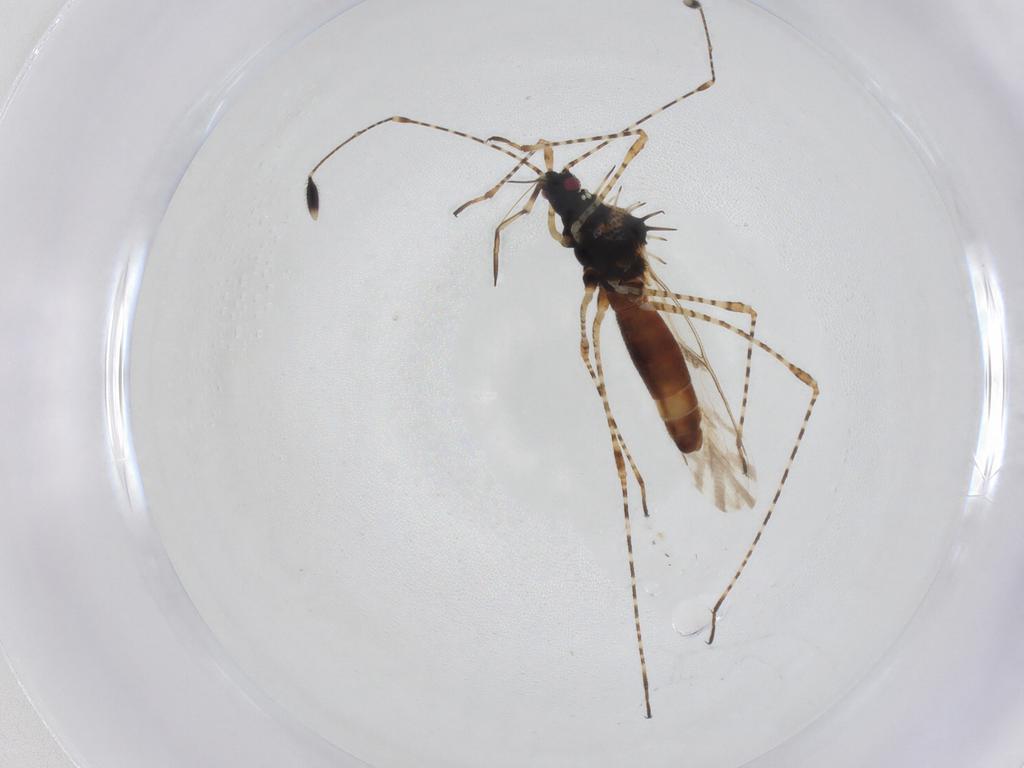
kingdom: Animalia
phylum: Arthropoda
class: Insecta
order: Hemiptera
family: Berytidae
